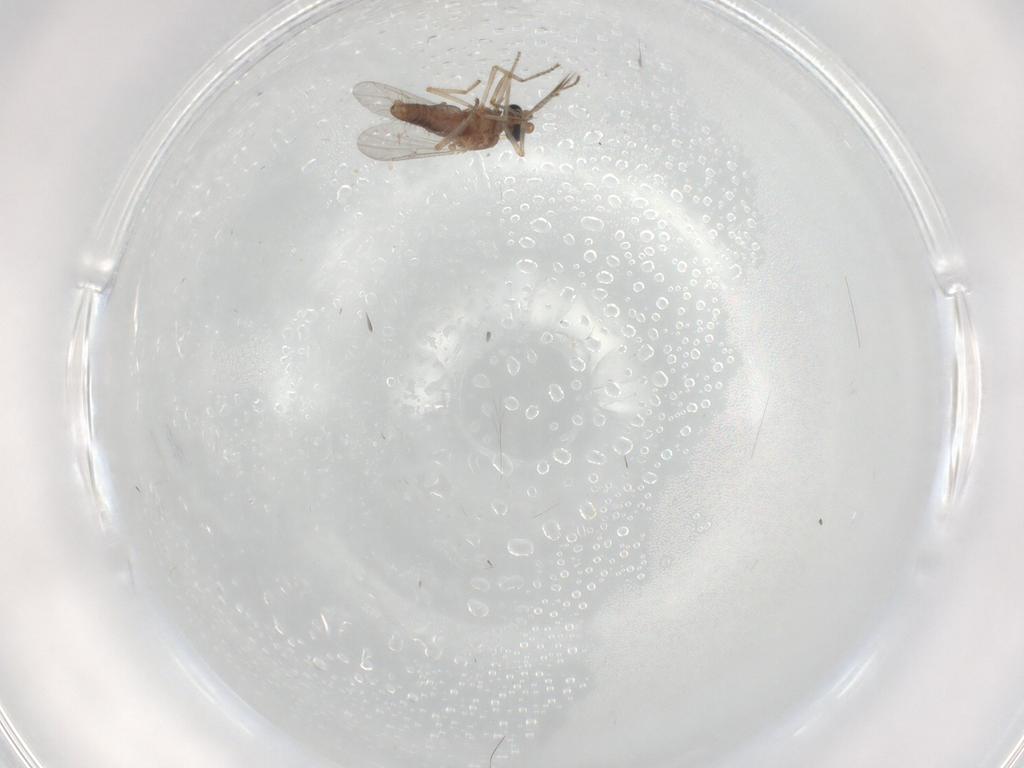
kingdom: Animalia
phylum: Arthropoda
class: Insecta
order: Diptera
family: Ceratopogonidae
